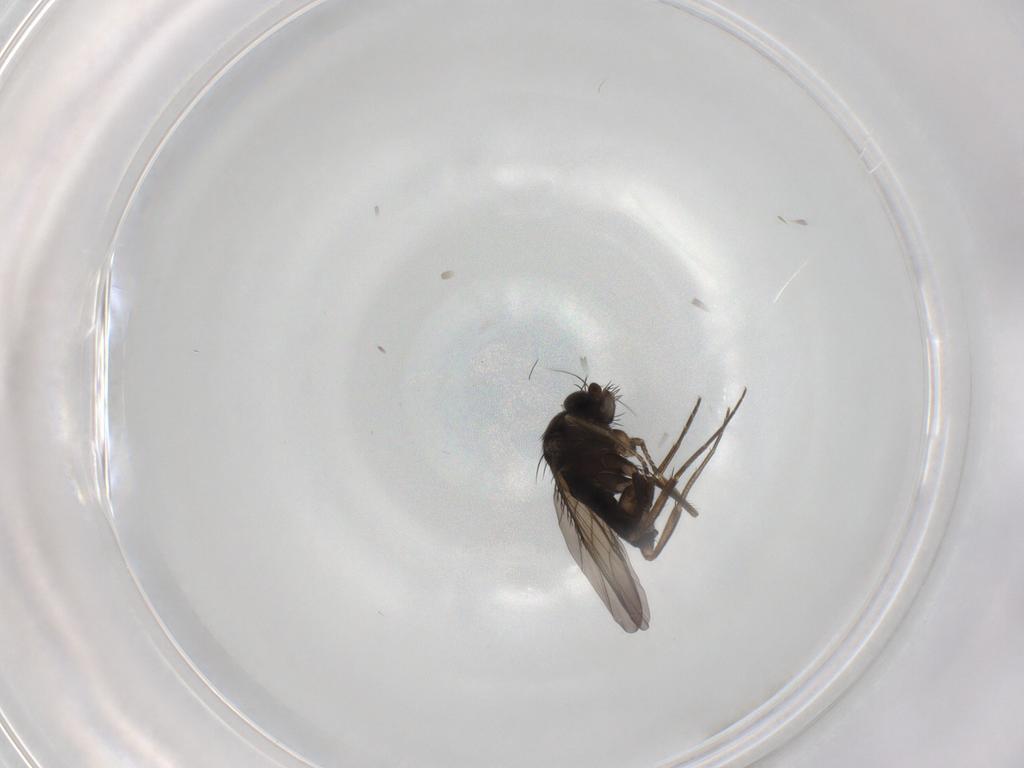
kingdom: Animalia
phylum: Arthropoda
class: Insecta
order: Diptera
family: Phoridae
